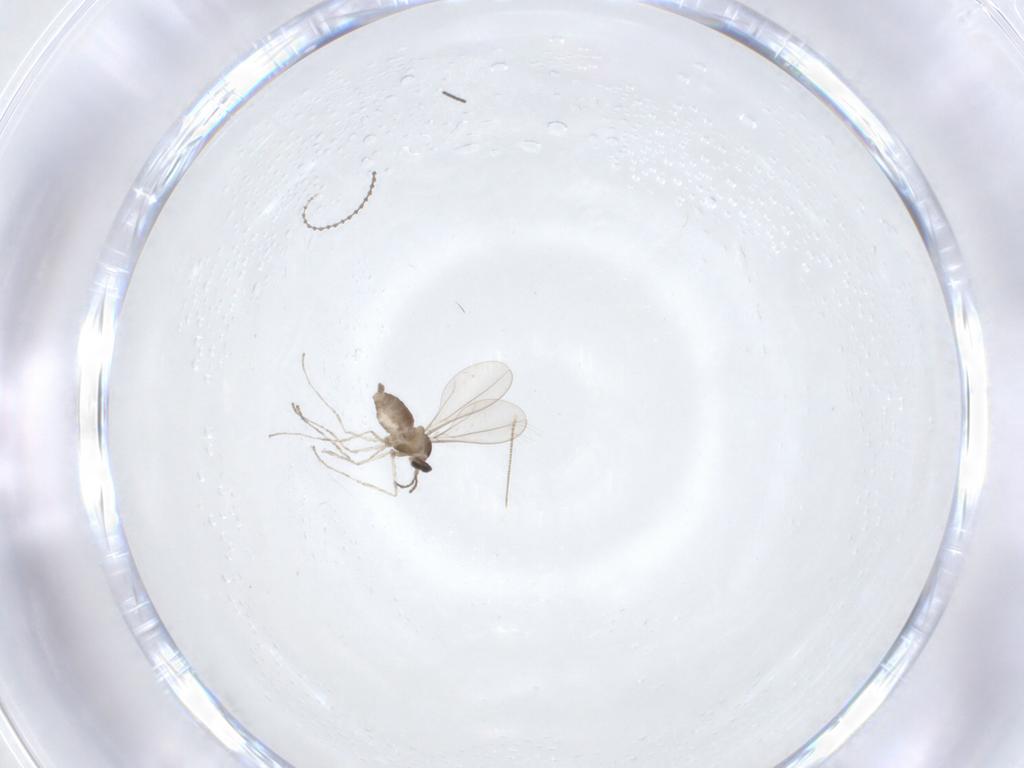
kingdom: Animalia
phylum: Arthropoda
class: Insecta
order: Diptera
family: Cecidomyiidae
